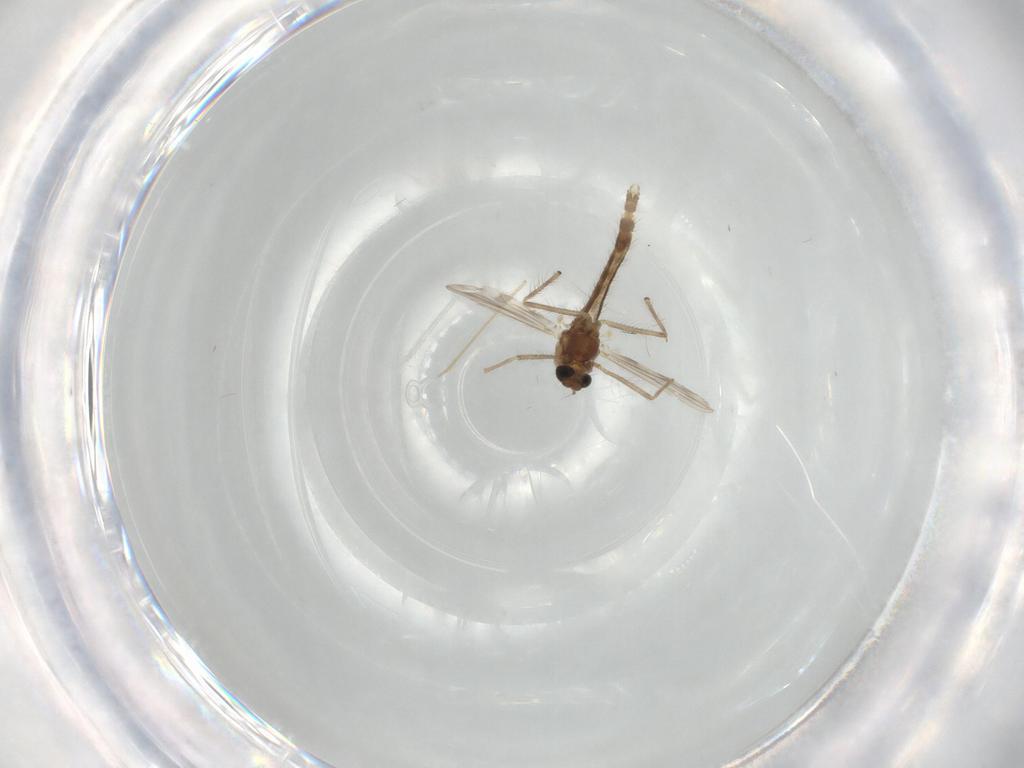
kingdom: Animalia
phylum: Arthropoda
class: Insecta
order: Diptera
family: Chironomidae
